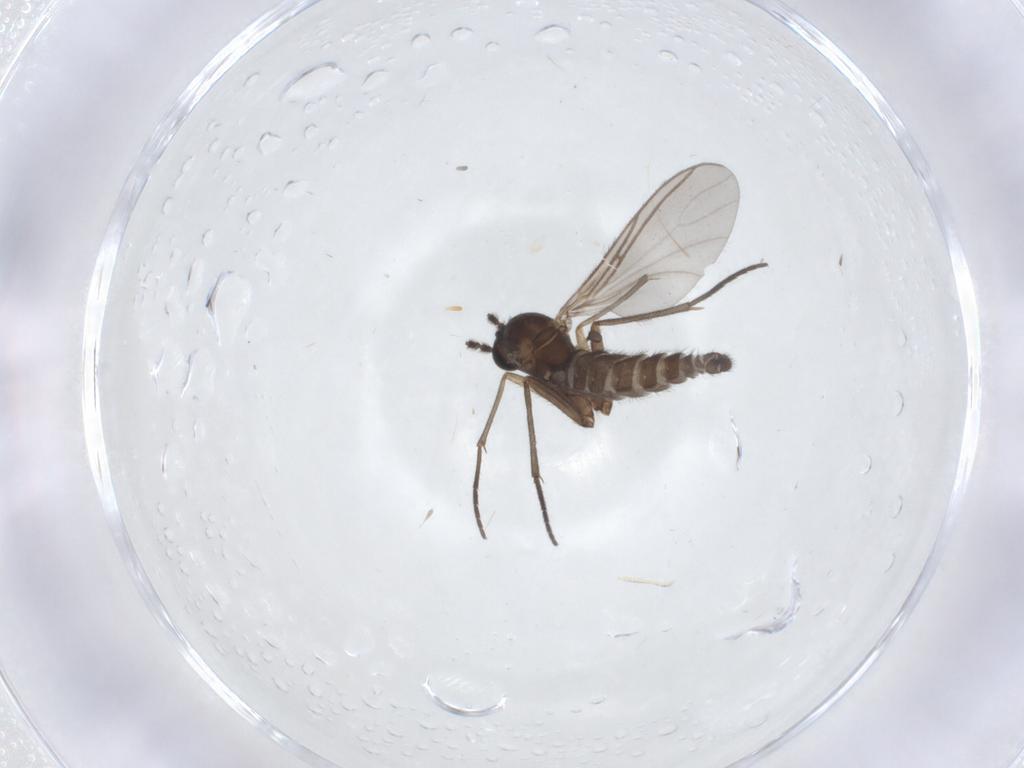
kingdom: Animalia
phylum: Arthropoda
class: Insecta
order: Diptera
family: Sciaridae
